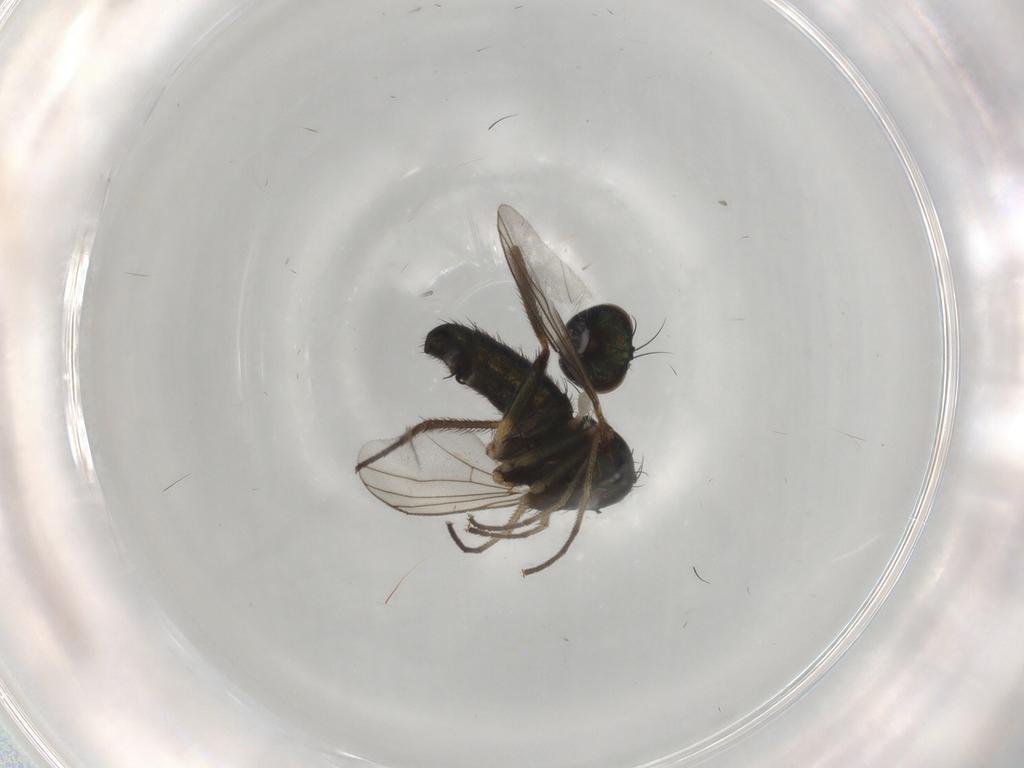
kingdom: Animalia
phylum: Arthropoda
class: Insecta
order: Diptera
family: Dolichopodidae
